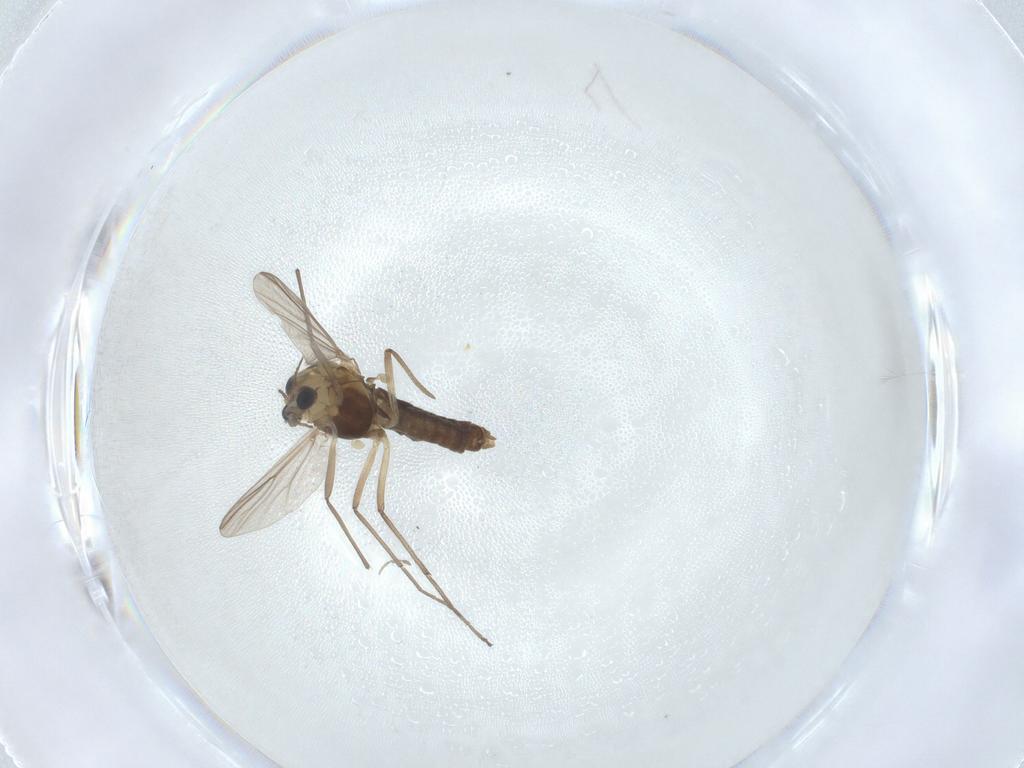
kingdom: Animalia
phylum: Arthropoda
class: Insecta
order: Diptera
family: Chironomidae
